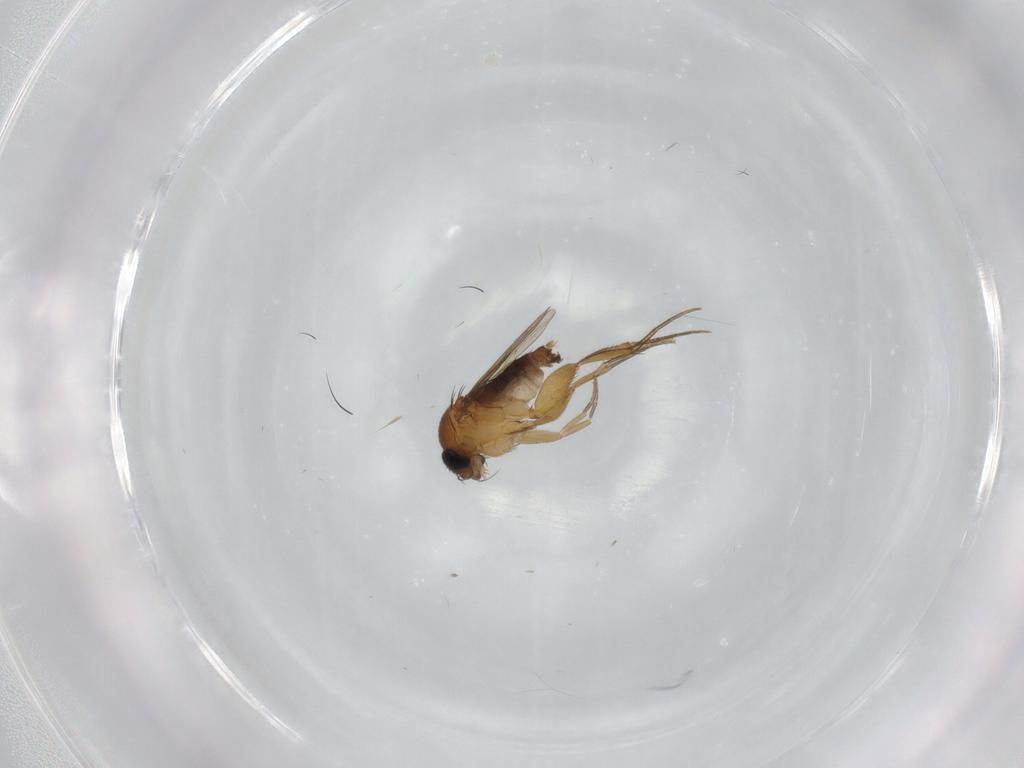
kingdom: Animalia
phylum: Arthropoda
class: Insecta
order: Diptera
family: Phoridae
